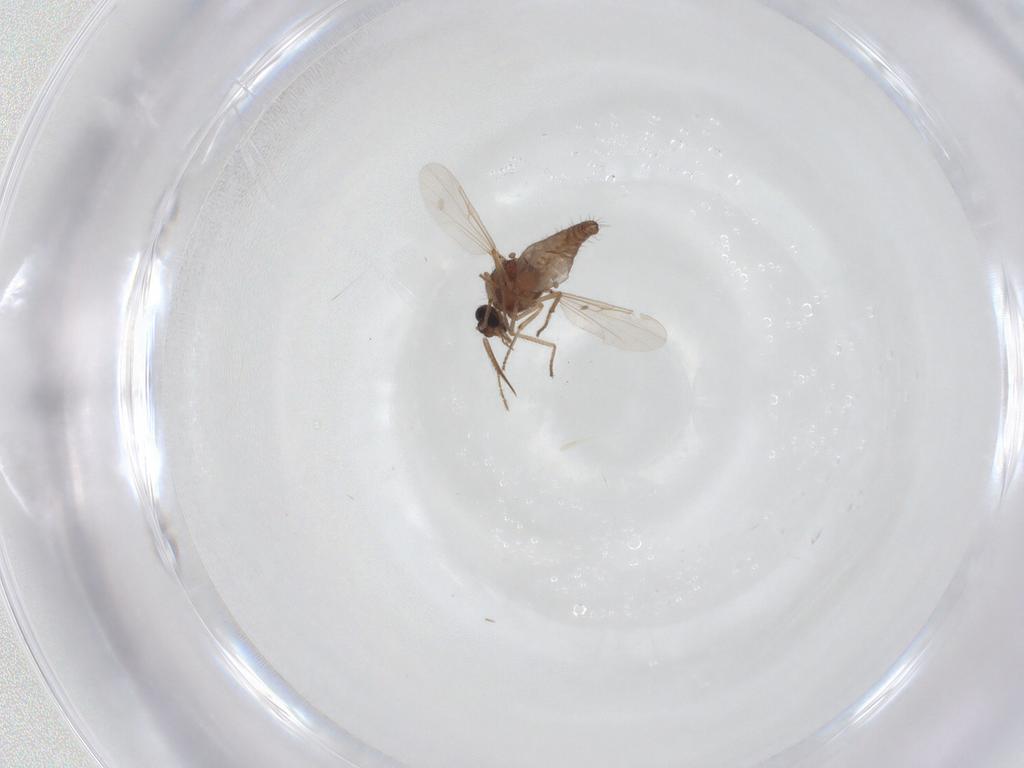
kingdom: Animalia
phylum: Arthropoda
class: Insecta
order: Diptera
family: Ceratopogonidae
